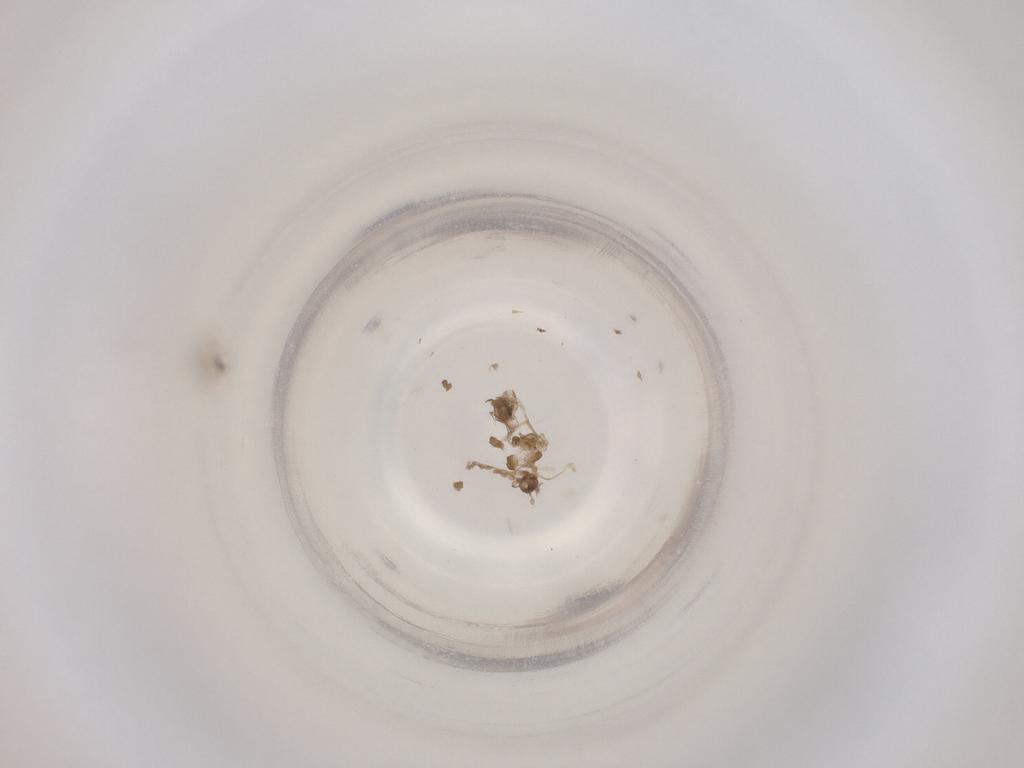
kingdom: Animalia
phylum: Arthropoda
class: Insecta
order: Diptera
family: Cecidomyiidae
